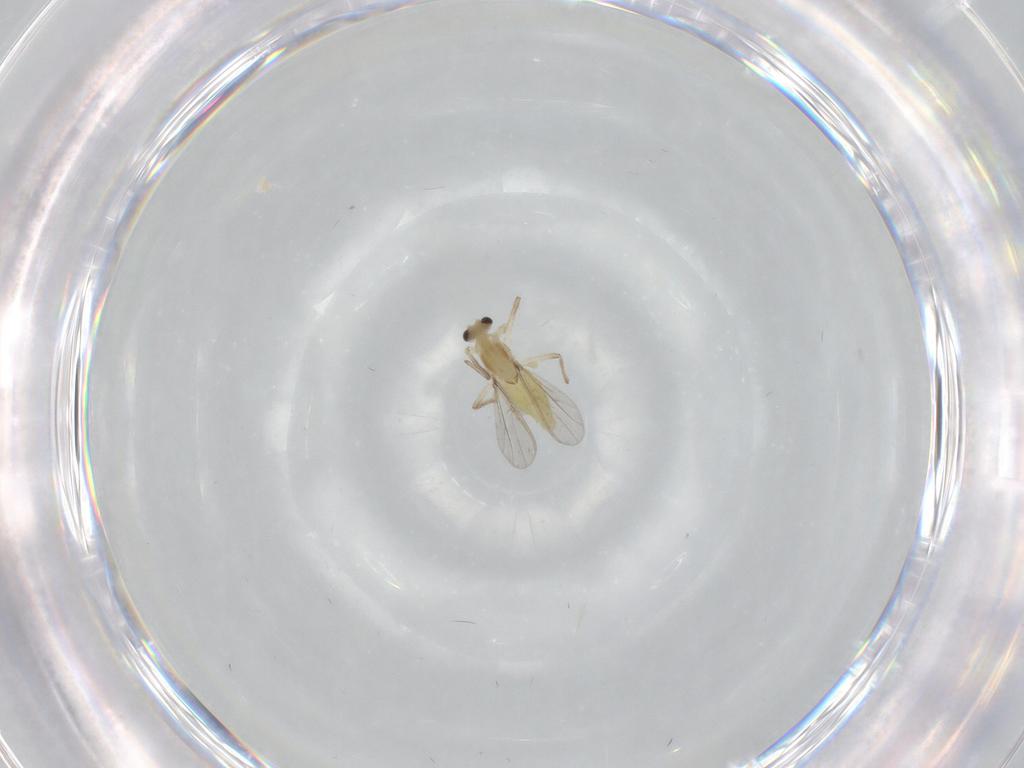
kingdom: Animalia
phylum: Arthropoda
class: Insecta
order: Diptera
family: Chironomidae
